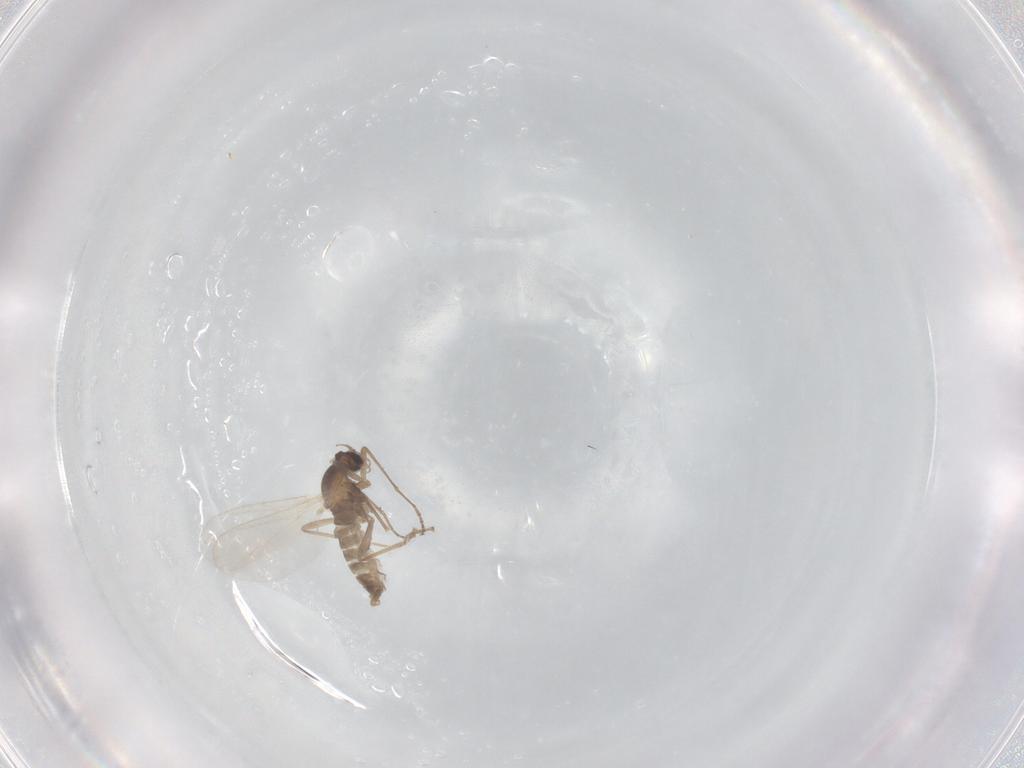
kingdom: Animalia
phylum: Arthropoda
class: Insecta
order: Diptera
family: Cecidomyiidae
